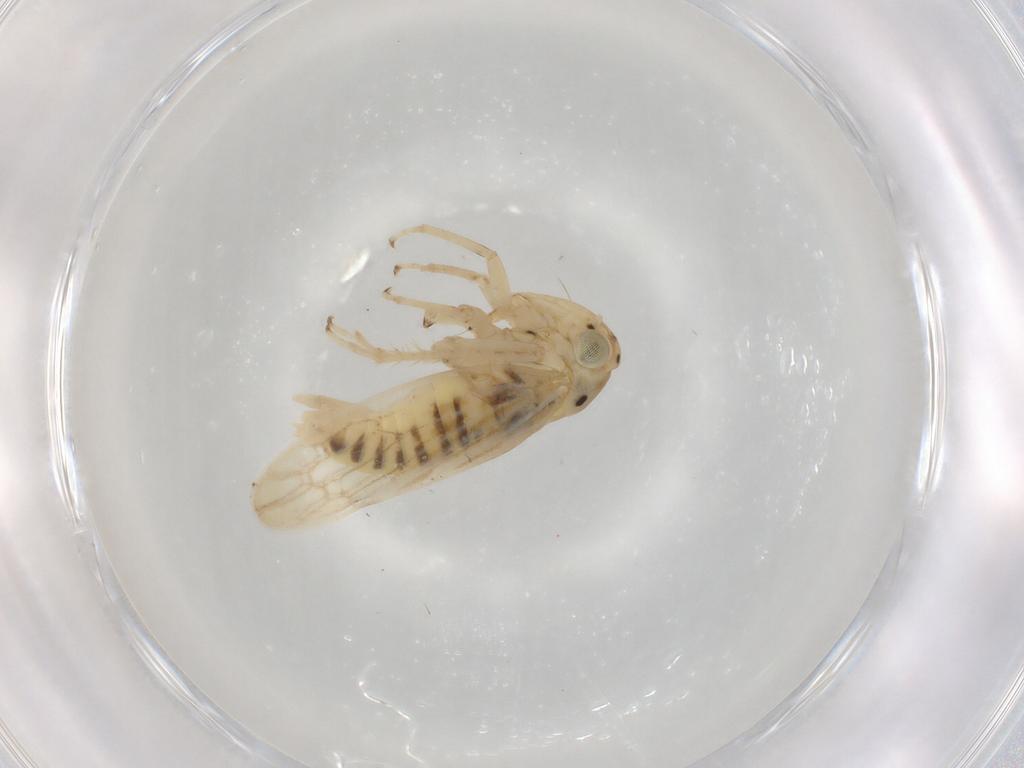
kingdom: Animalia
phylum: Arthropoda
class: Insecta
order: Hemiptera
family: Cicadellidae
